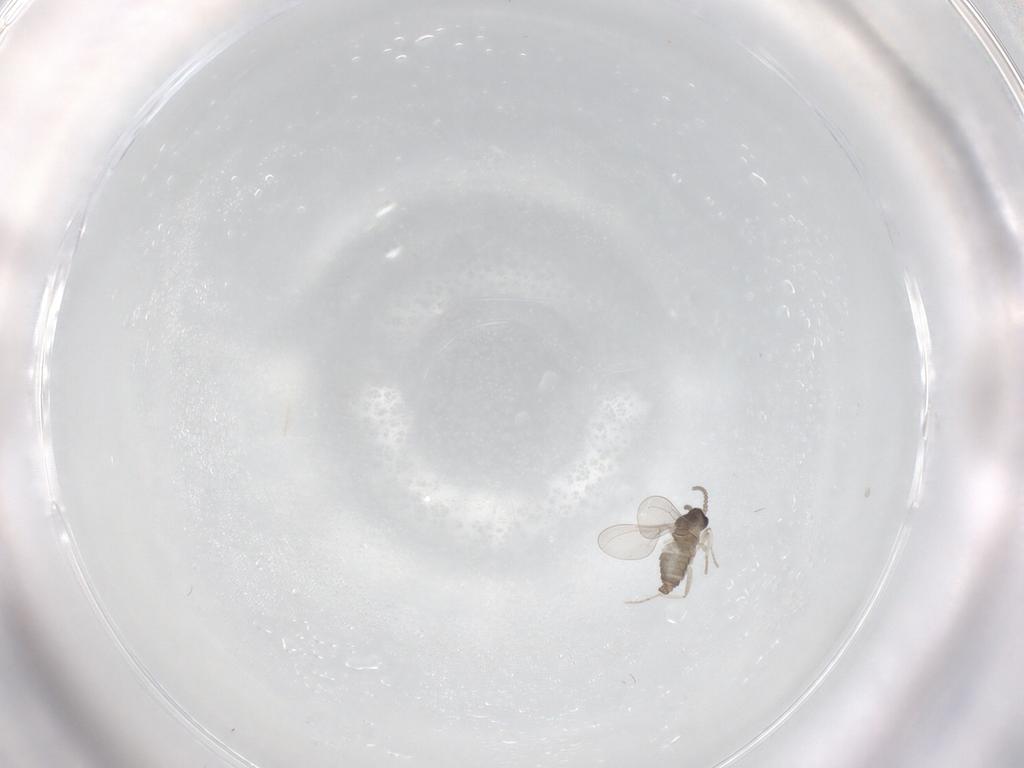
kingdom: Animalia
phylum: Arthropoda
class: Insecta
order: Diptera
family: Cecidomyiidae
